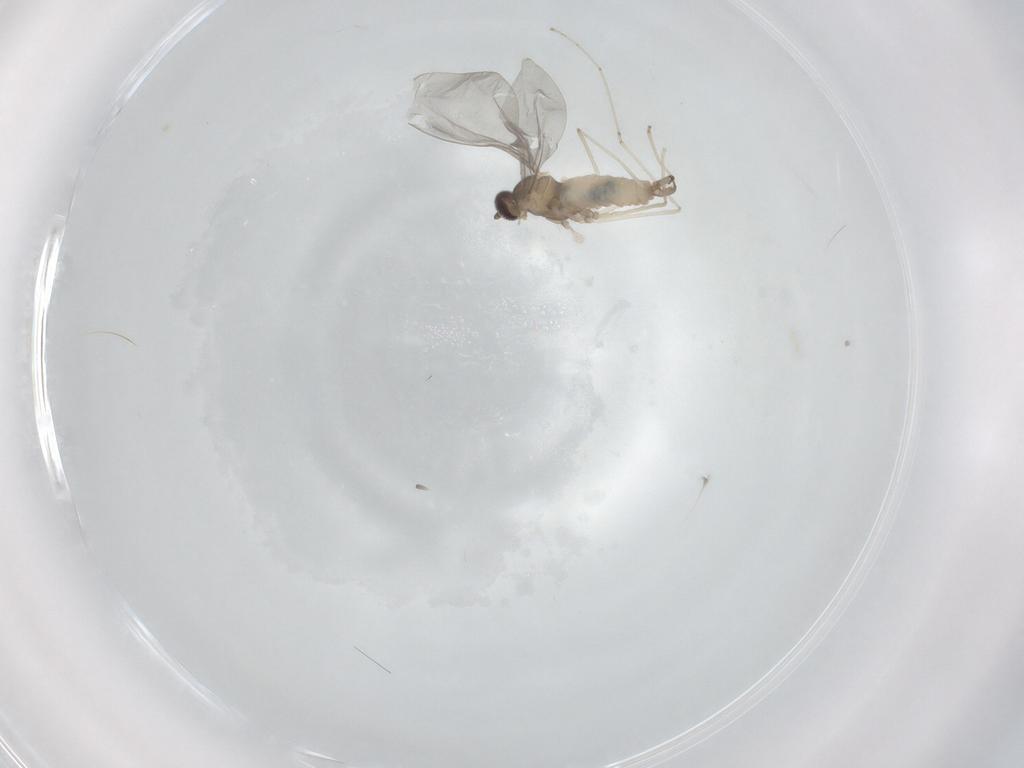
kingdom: Animalia
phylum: Arthropoda
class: Insecta
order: Diptera
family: Cecidomyiidae
